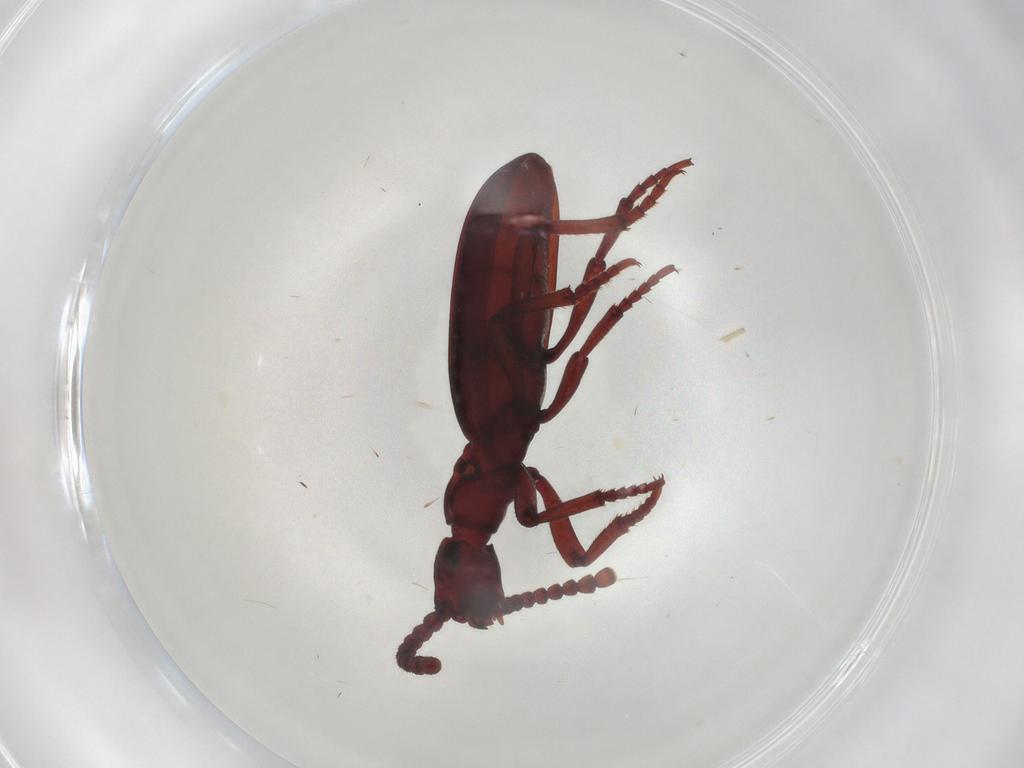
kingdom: Animalia
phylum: Arthropoda
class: Insecta
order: Coleoptera
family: Anthicidae
